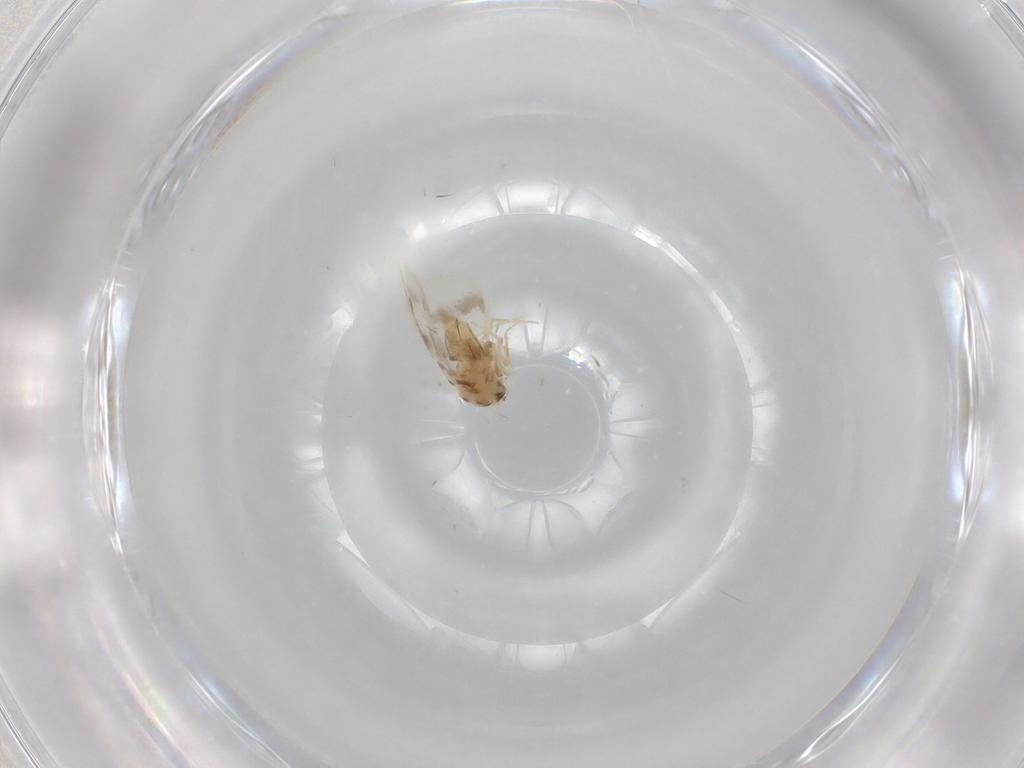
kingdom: Animalia
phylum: Arthropoda
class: Insecta
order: Hemiptera
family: Aleyrodidae
